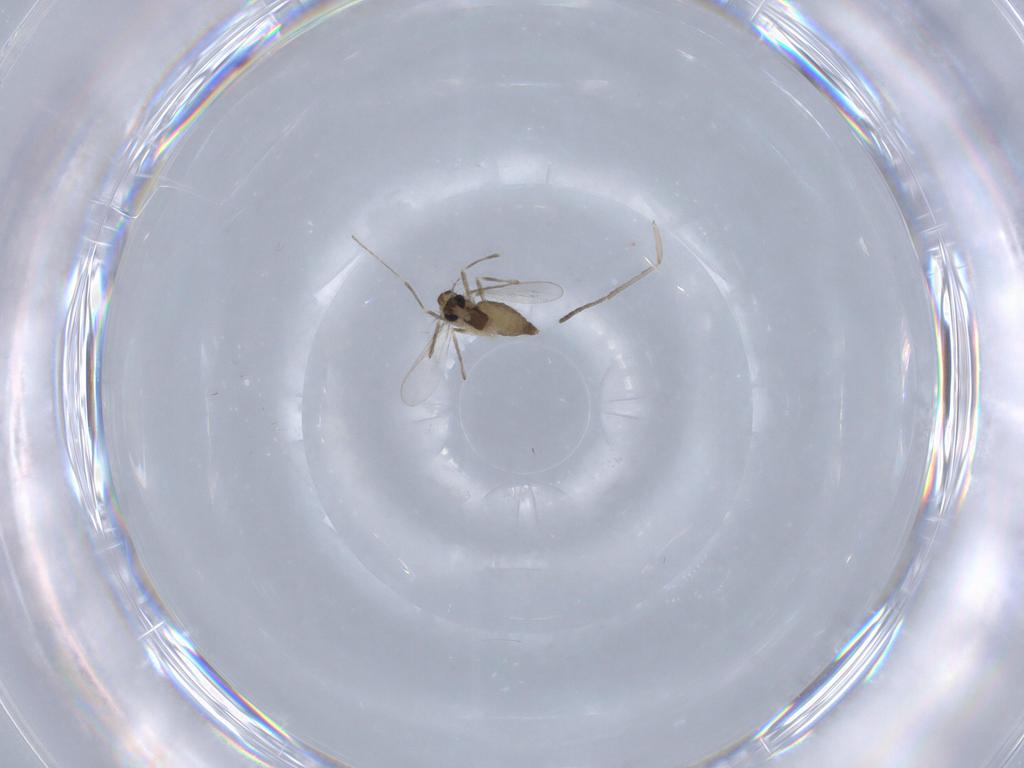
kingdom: Animalia
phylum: Arthropoda
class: Insecta
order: Diptera
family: Chironomidae
